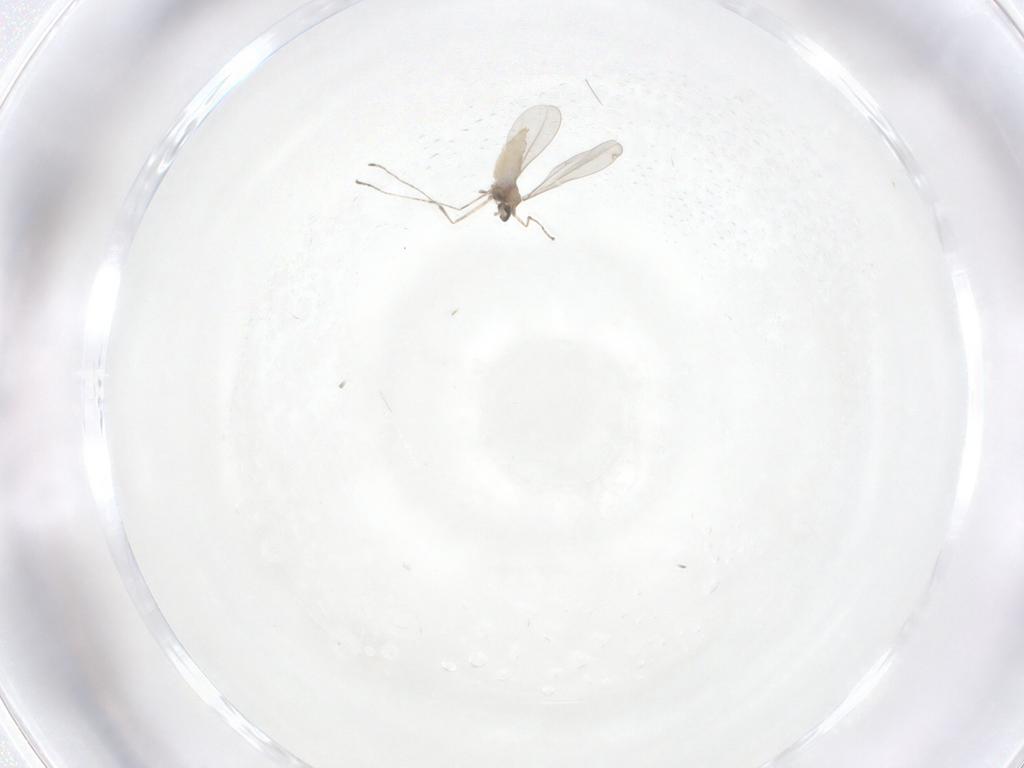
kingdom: Animalia
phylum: Arthropoda
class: Insecta
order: Diptera
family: Cecidomyiidae
